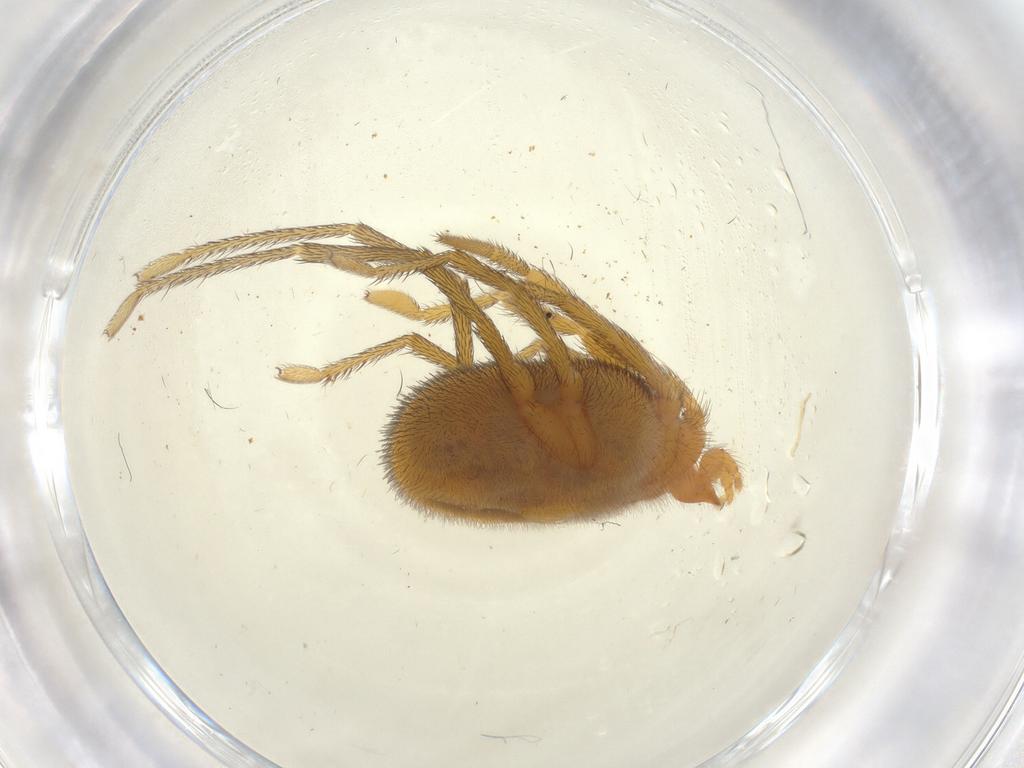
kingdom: Animalia
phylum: Arthropoda
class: Arachnida
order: Trombidiformes
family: Erythraeidae
